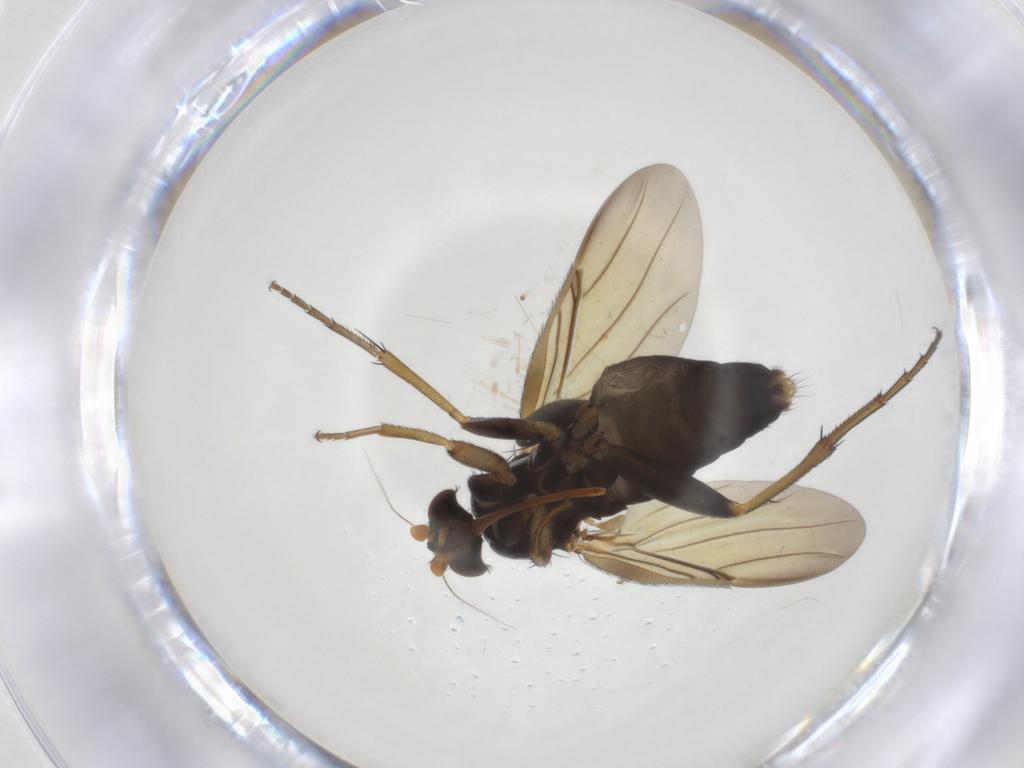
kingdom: Animalia
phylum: Arthropoda
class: Insecta
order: Diptera
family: Phoridae
